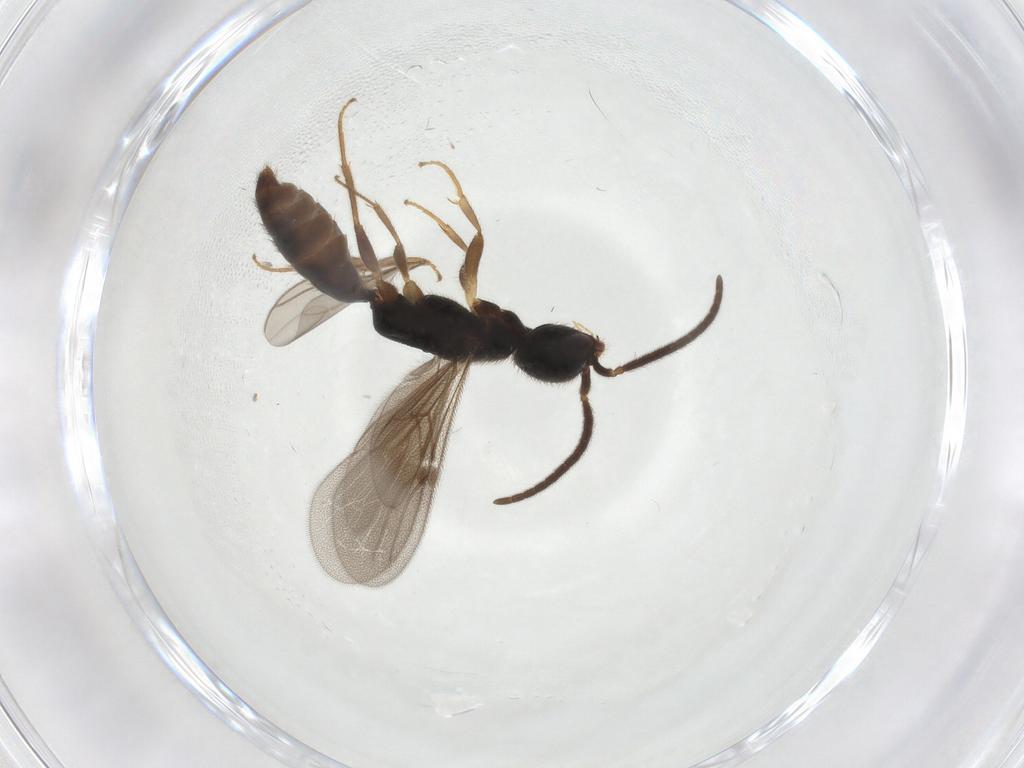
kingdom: Animalia
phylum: Arthropoda
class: Insecta
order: Hymenoptera
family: Bethylidae
